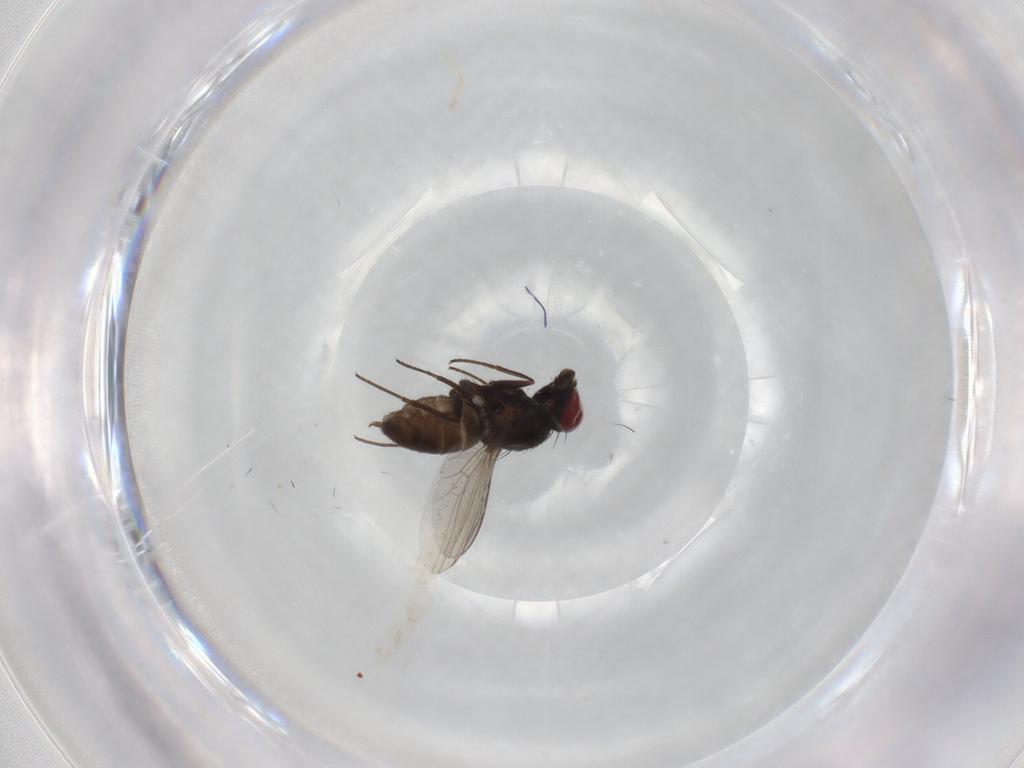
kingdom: Animalia
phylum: Arthropoda
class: Insecta
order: Diptera
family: Dolichopodidae
